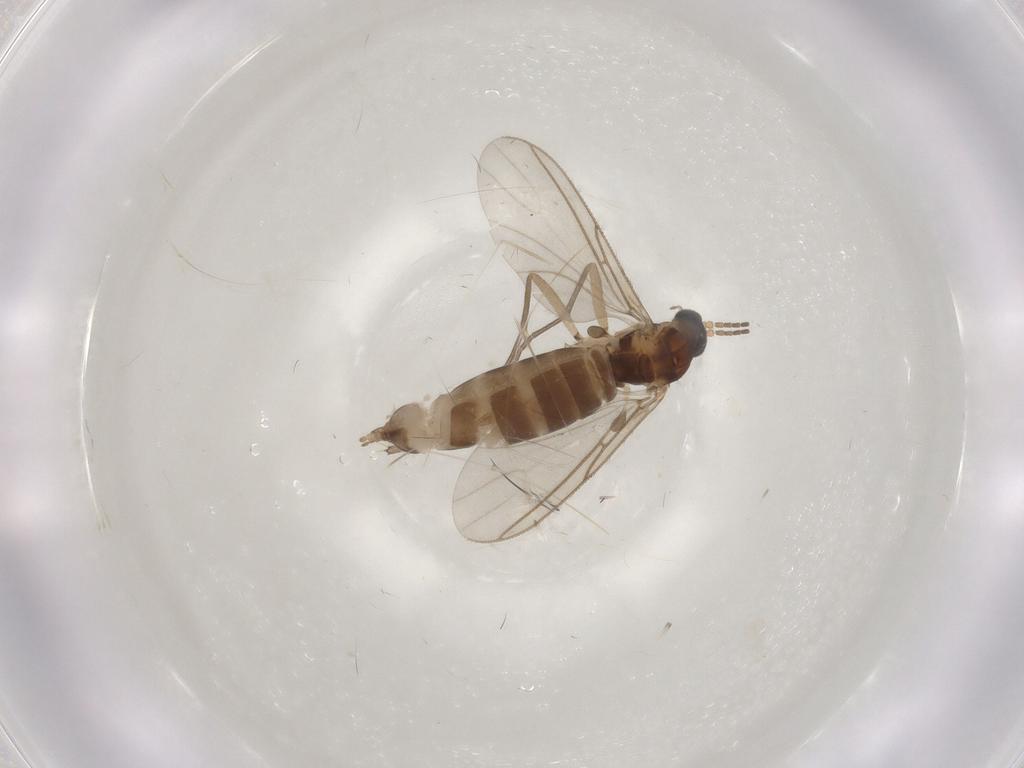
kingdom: Animalia
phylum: Arthropoda
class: Insecta
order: Diptera
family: Sciaridae
